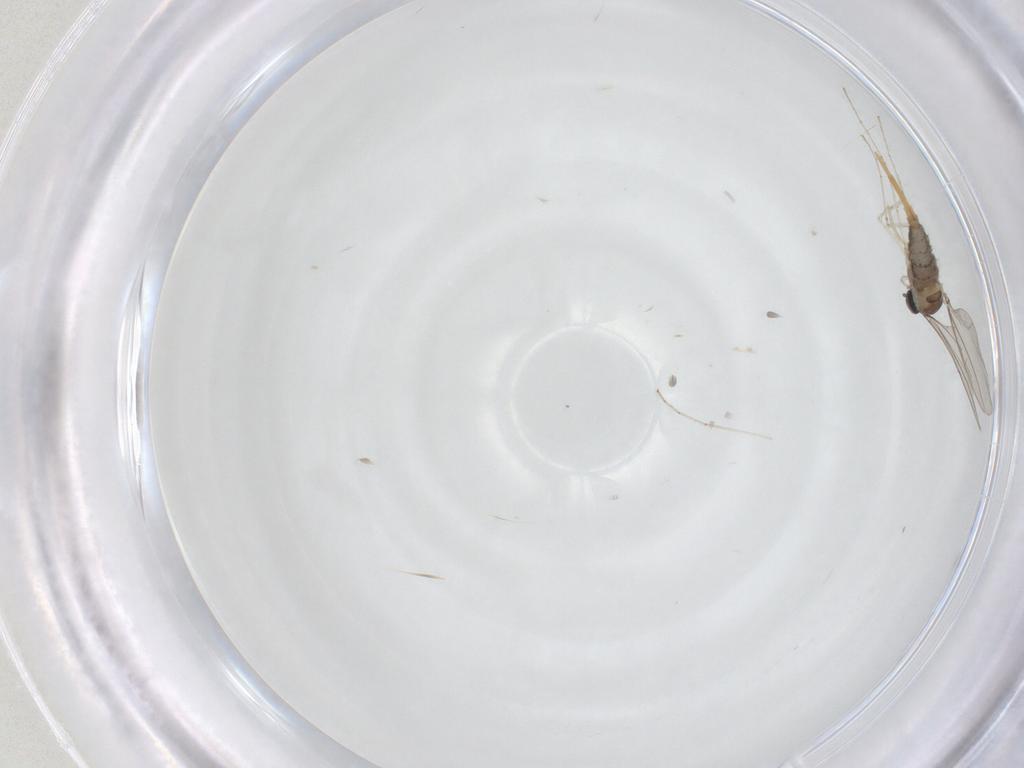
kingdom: Animalia
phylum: Arthropoda
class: Insecta
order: Diptera
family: Cecidomyiidae
